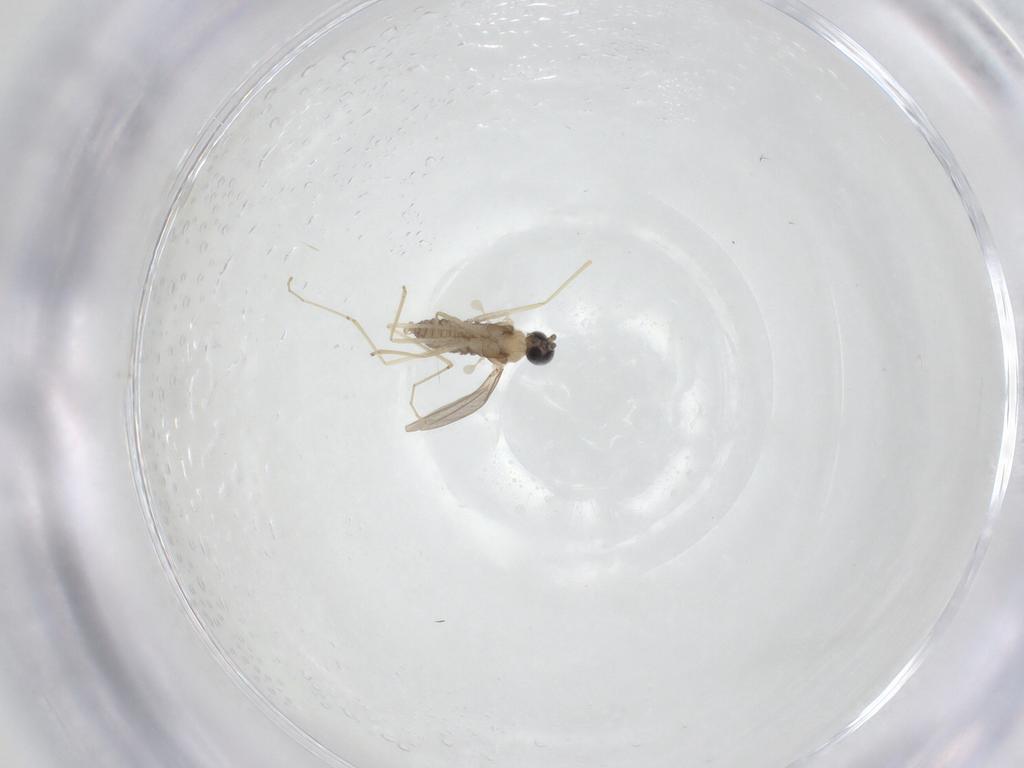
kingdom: Animalia
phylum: Arthropoda
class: Insecta
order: Diptera
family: Cecidomyiidae
